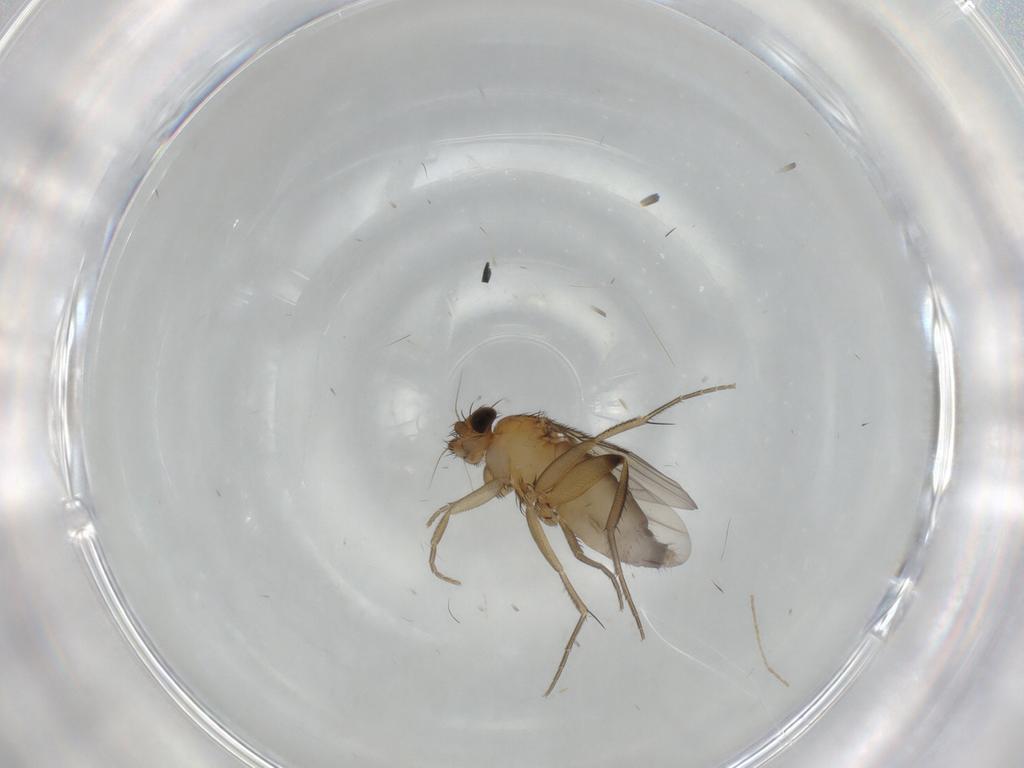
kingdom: Animalia
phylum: Arthropoda
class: Insecta
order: Diptera
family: Phoridae
